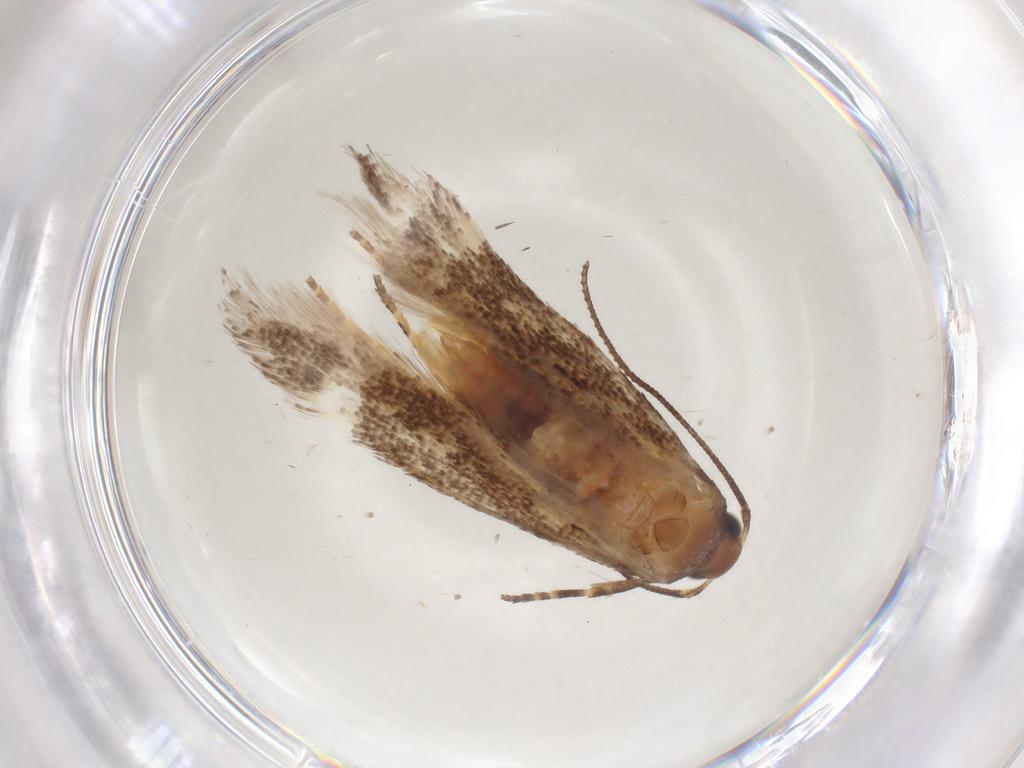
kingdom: Animalia
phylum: Arthropoda
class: Insecta
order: Lepidoptera
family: Gelechiidae
